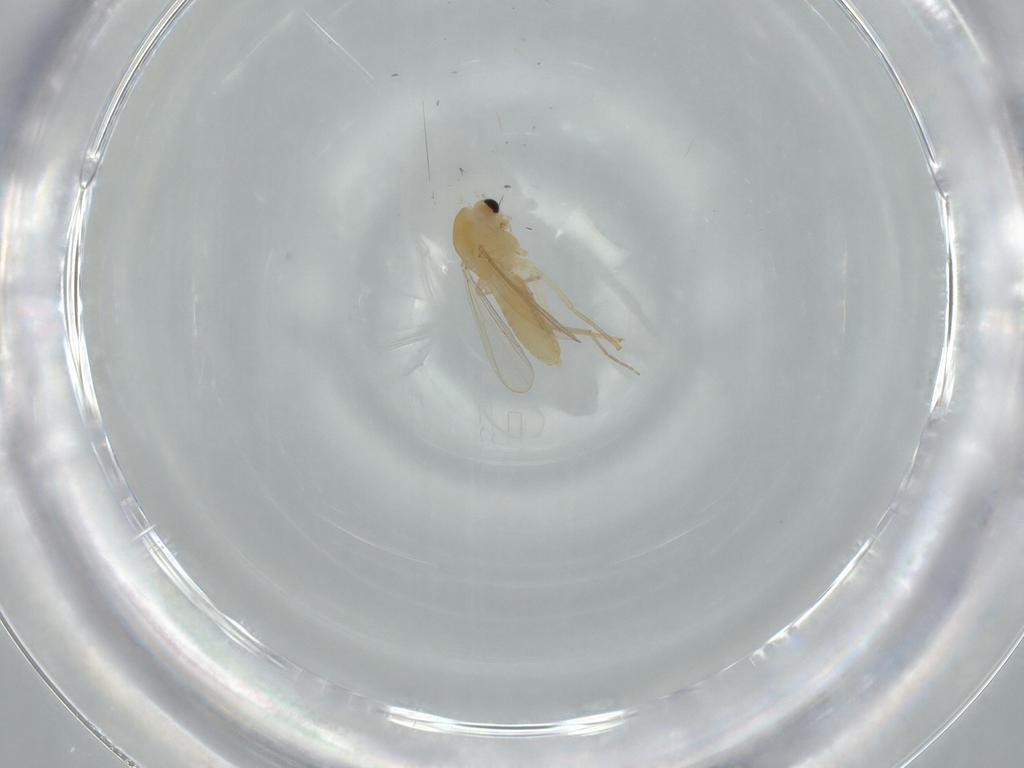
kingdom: Animalia
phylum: Arthropoda
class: Insecta
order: Diptera
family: Chironomidae
